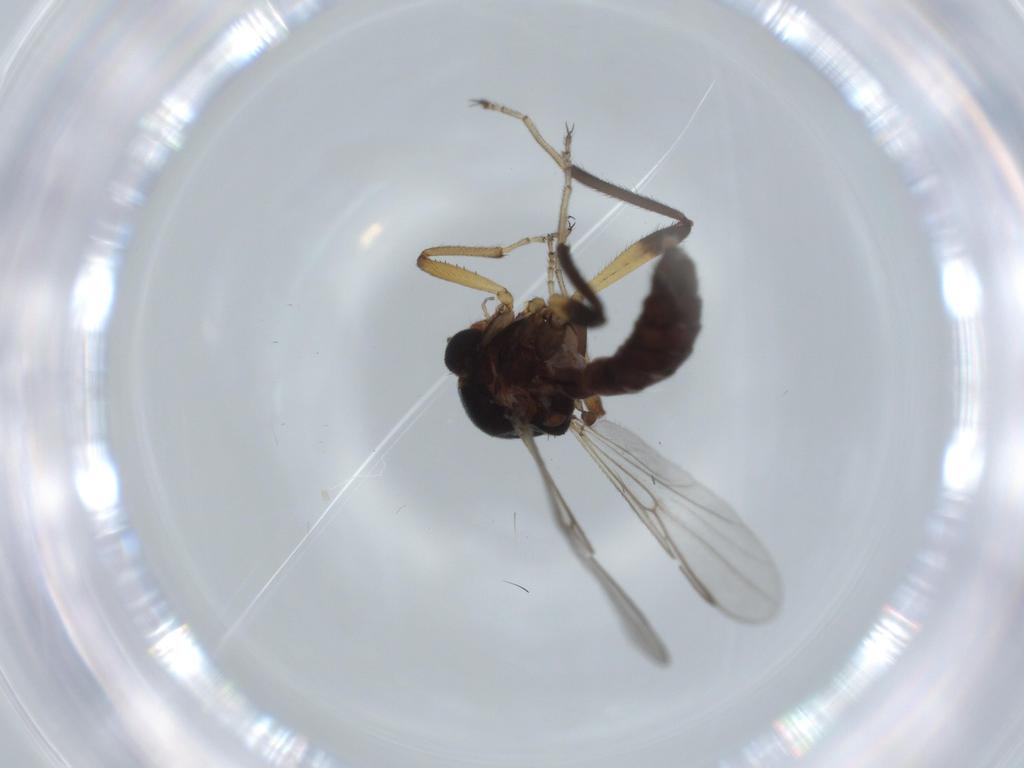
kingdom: Animalia
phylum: Arthropoda
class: Insecta
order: Diptera
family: Ceratopogonidae
